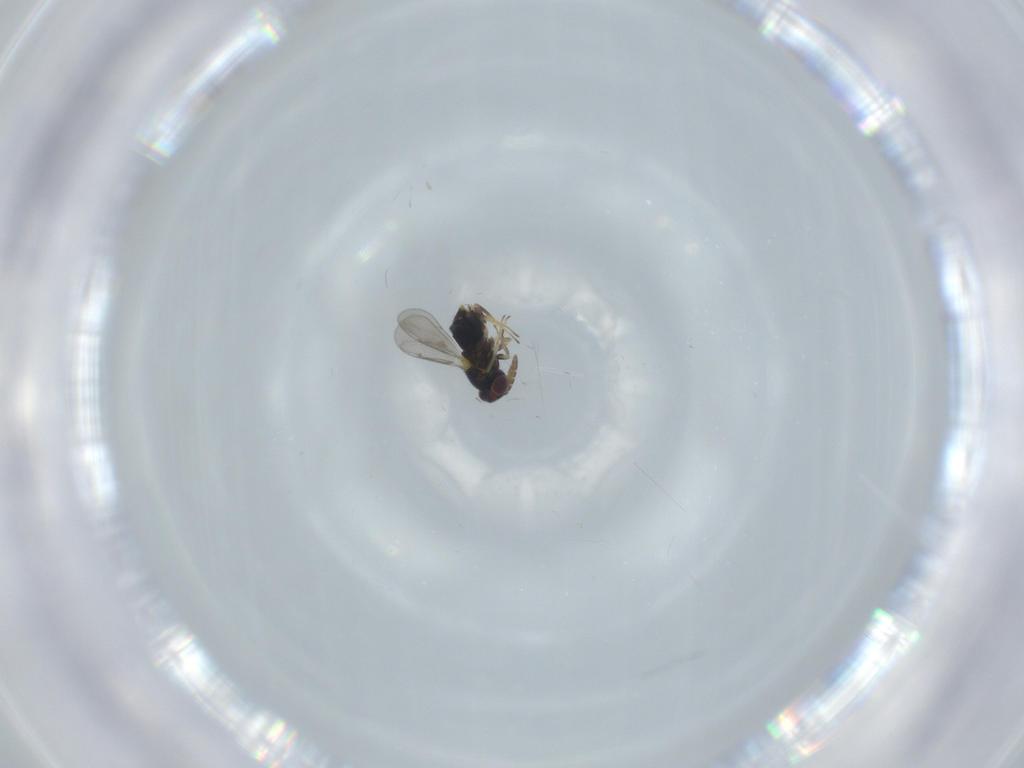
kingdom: Animalia
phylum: Arthropoda
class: Insecta
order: Hymenoptera
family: Aphelinidae
